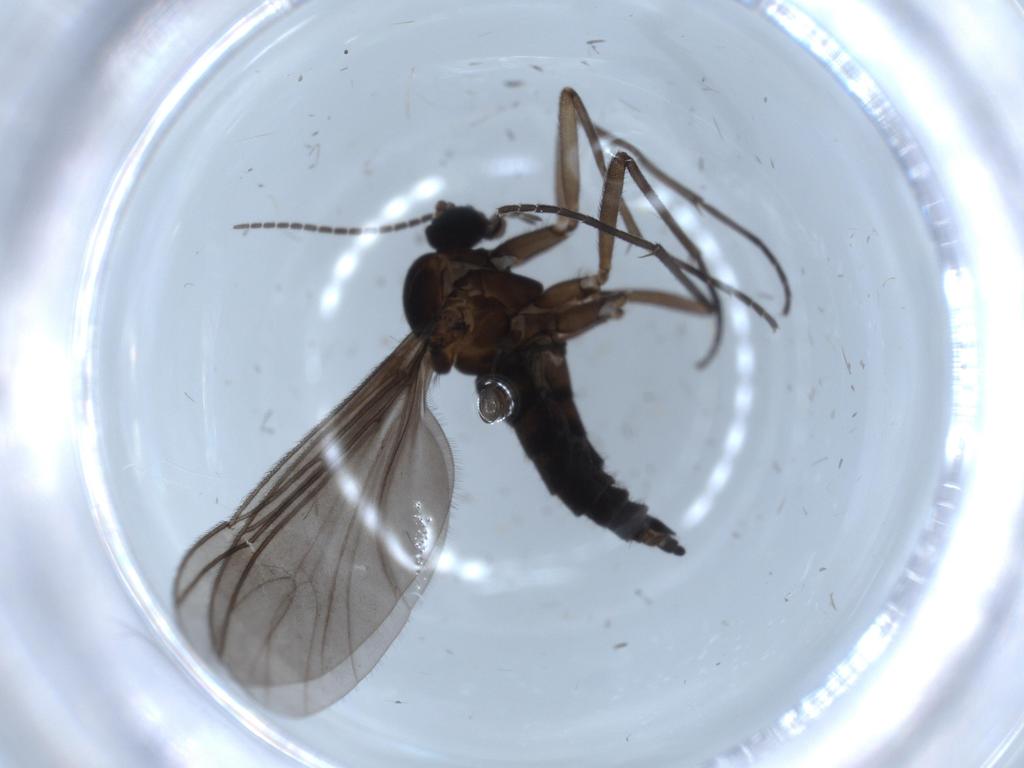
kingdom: Animalia
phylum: Arthropoda
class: Insecta
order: Diptera
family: Sciaridae
